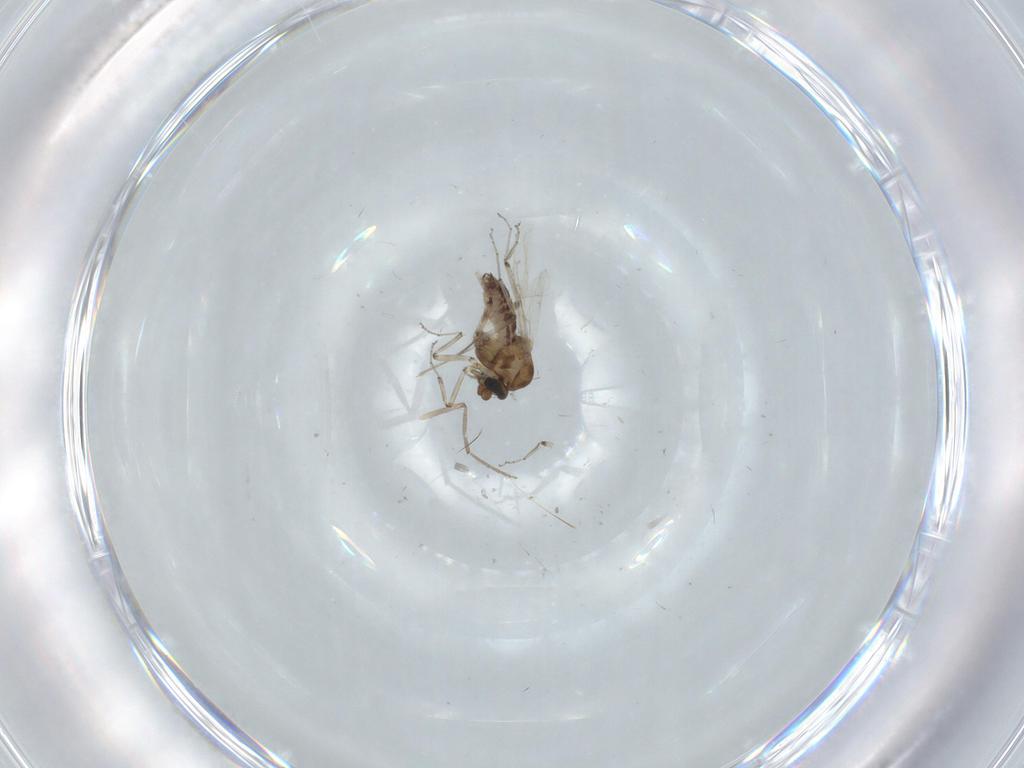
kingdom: Animalia
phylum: Arthropoda
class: Insecta
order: Diptera
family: Ceratopogonidae
